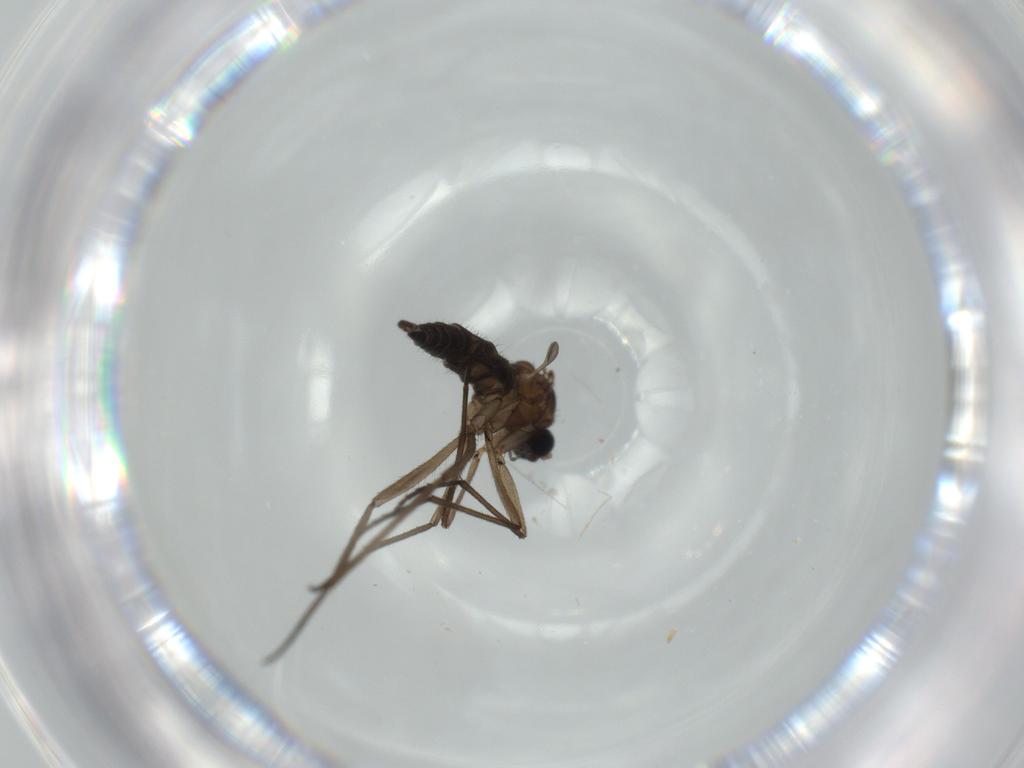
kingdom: Animalia
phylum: Arthropoda
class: Insecta
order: Diptera
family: Sciaridae
